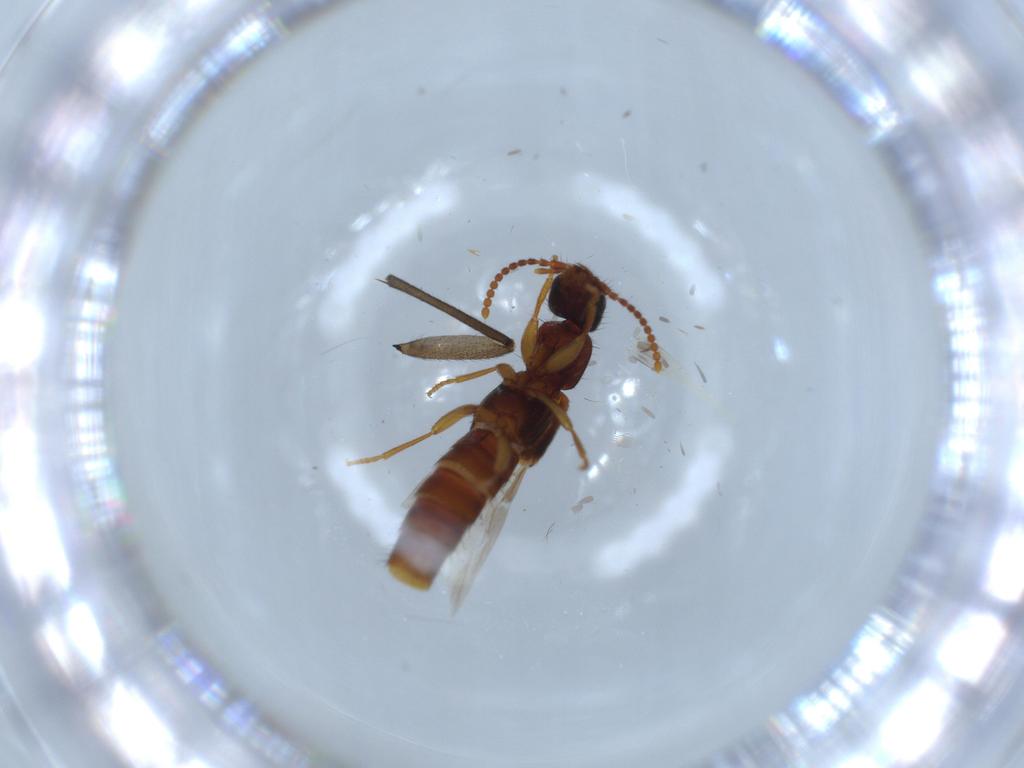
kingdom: Animalia
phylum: Arthropoda
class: Insecta
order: Coleoptera
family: Staphylinidae
